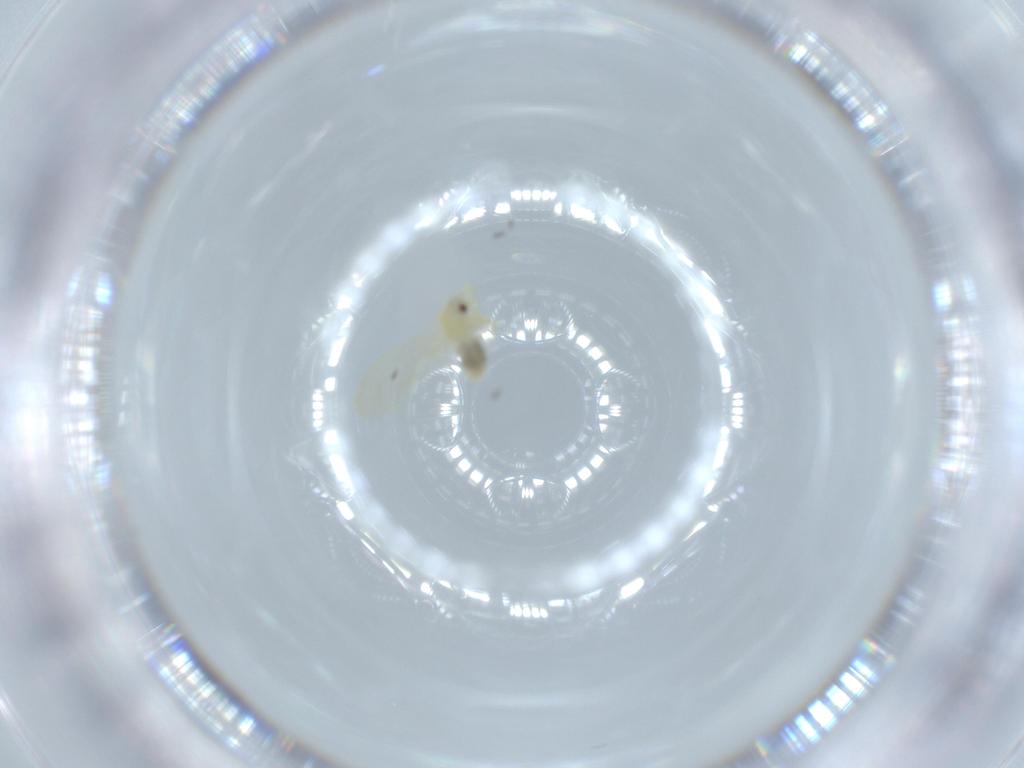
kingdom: Animalia
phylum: Arthropoda
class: Insecta
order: Hemiptera
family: Aleyrodidae
